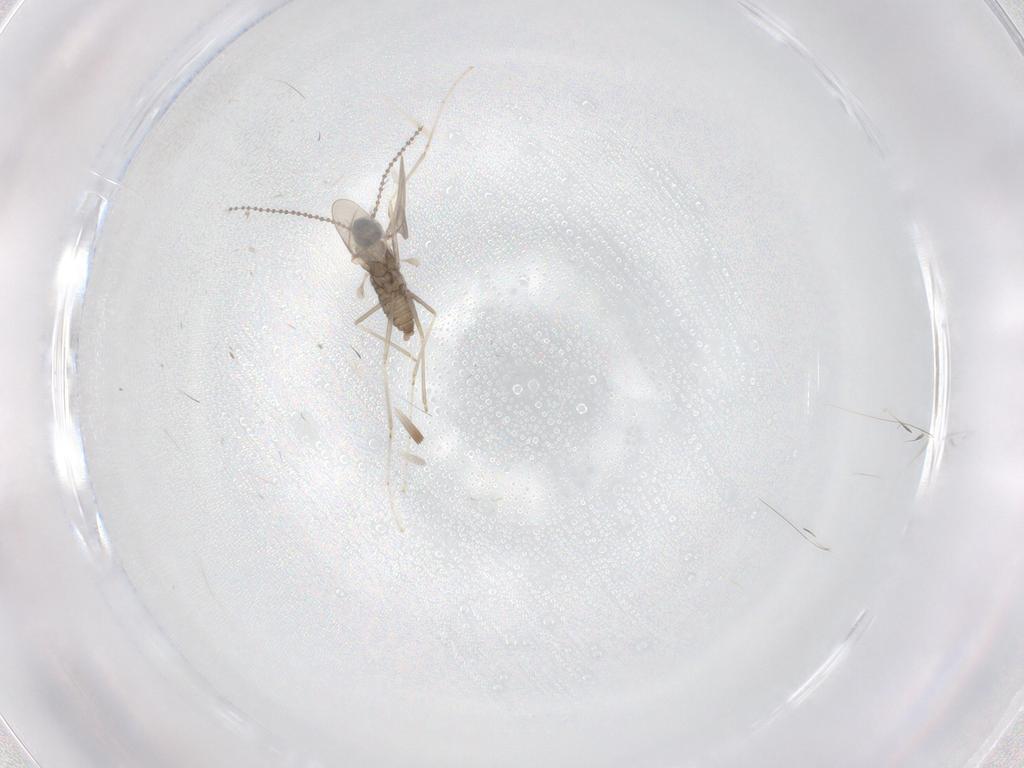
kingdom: Animalia
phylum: Arthropoda
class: Insecta
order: Diptera
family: Cecidomyiidae
